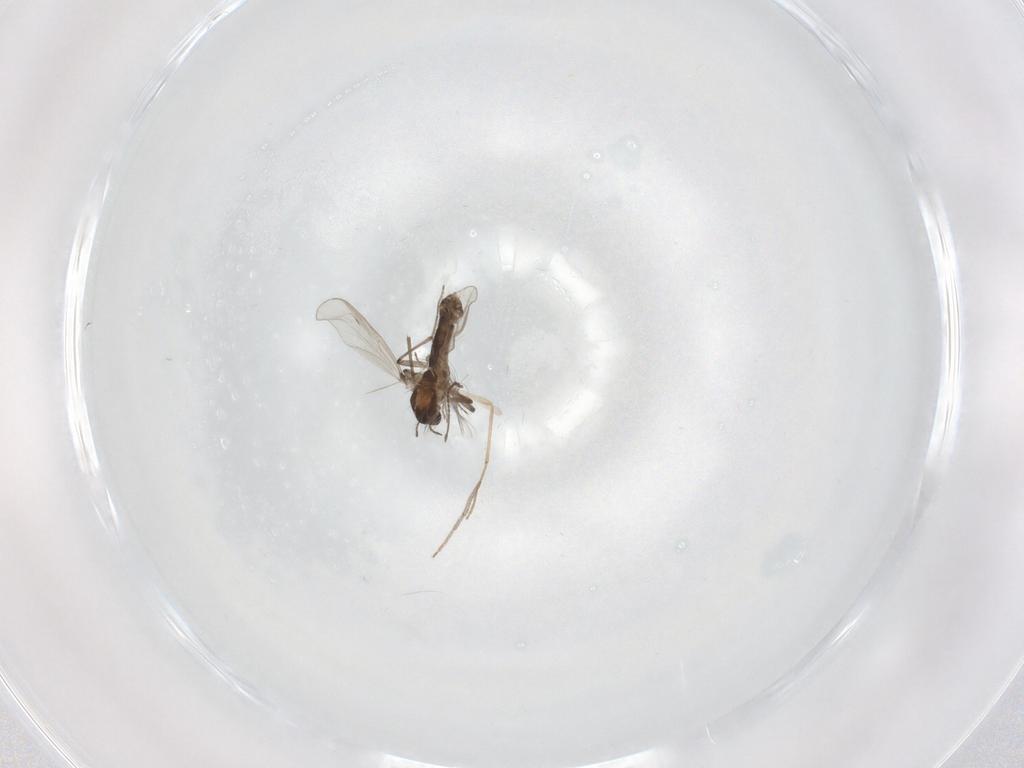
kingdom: Animalia
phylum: Arthropoda
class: Insecta
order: Diptera
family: Chironomidae
